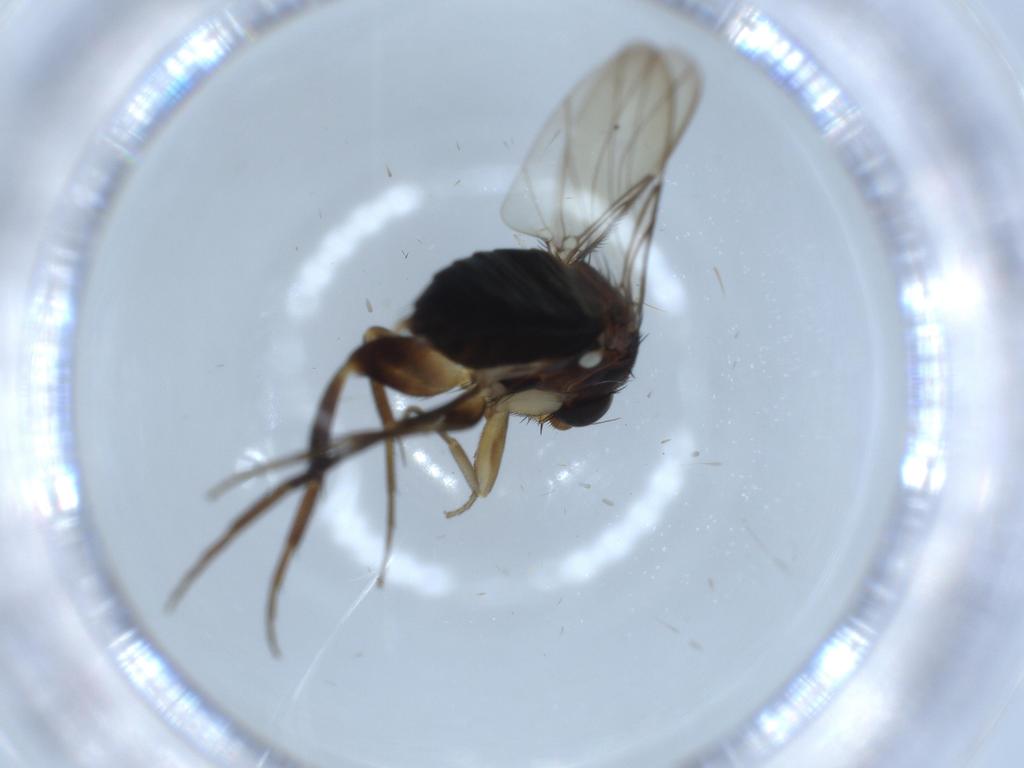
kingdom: Animalia
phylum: Arthropoda
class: Insecta
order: Diptera
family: Phoridae
